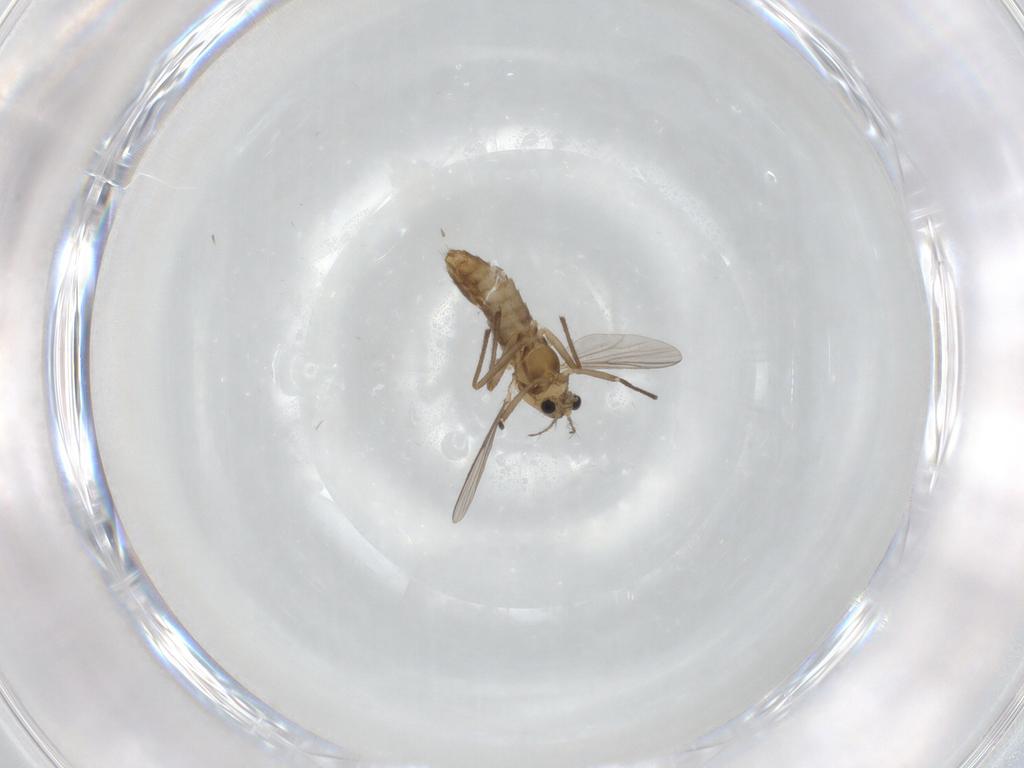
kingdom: Animalia
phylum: Arthropoda
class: Insecta
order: Diptera
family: Chironomidae
